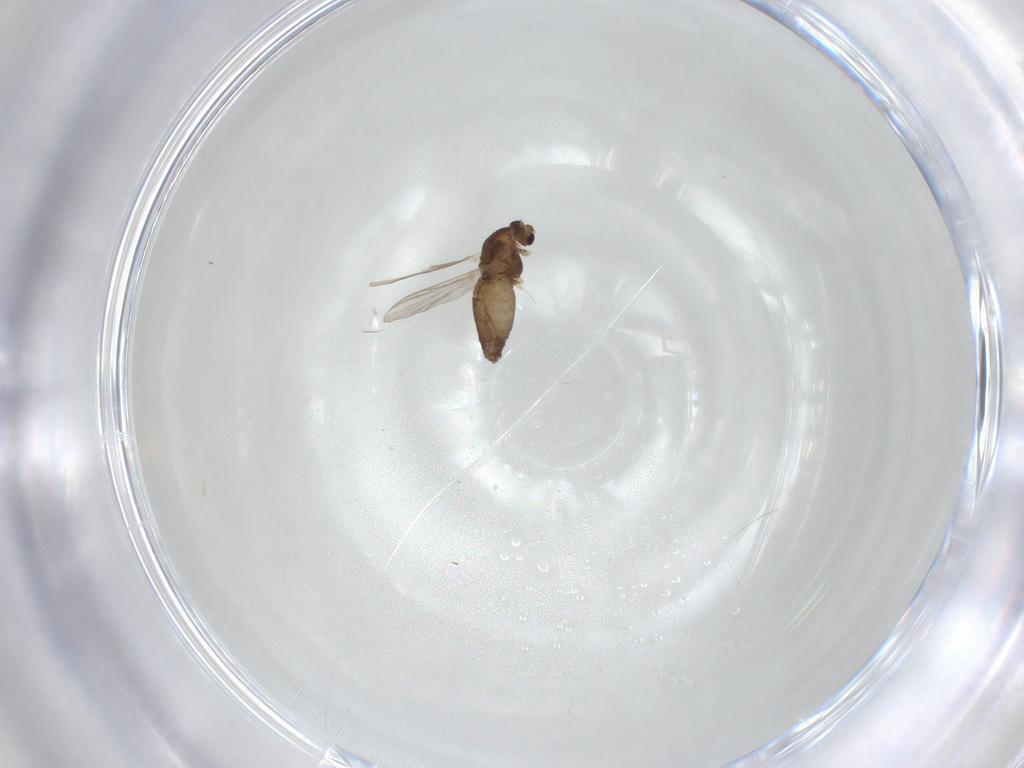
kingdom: Animalia
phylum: Arthropoda
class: Insecta
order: Diptera
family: Chironomidae
